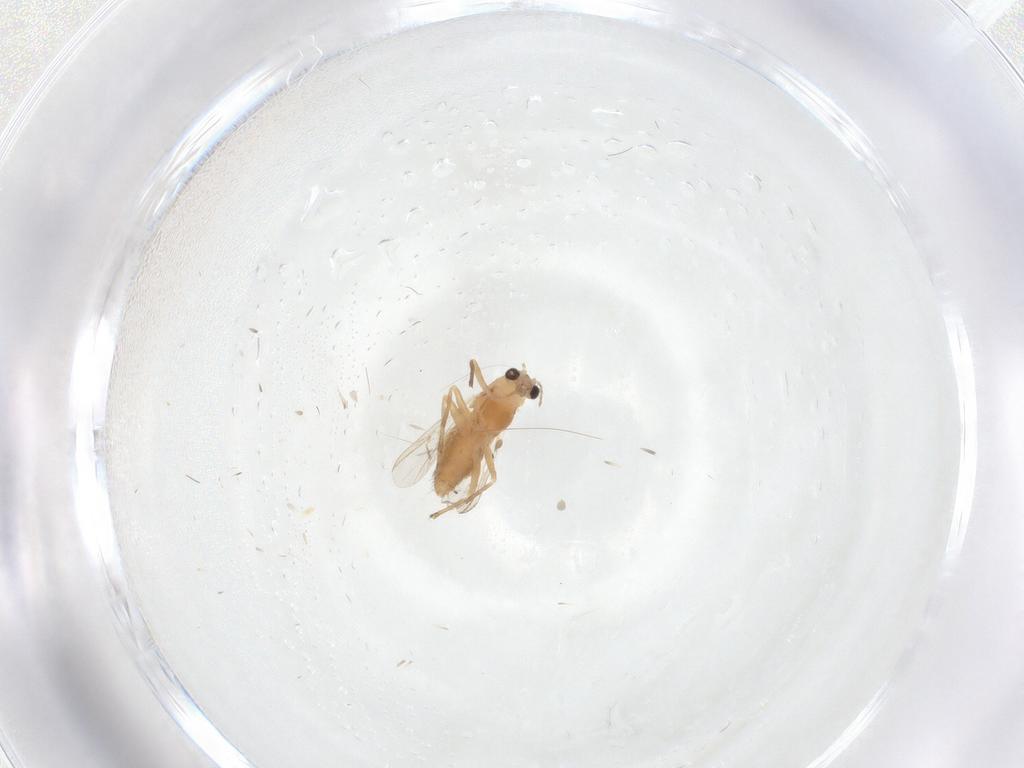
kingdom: Animalia
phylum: Arthropoda
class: Insecta
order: Diptera
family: Chironomidae
